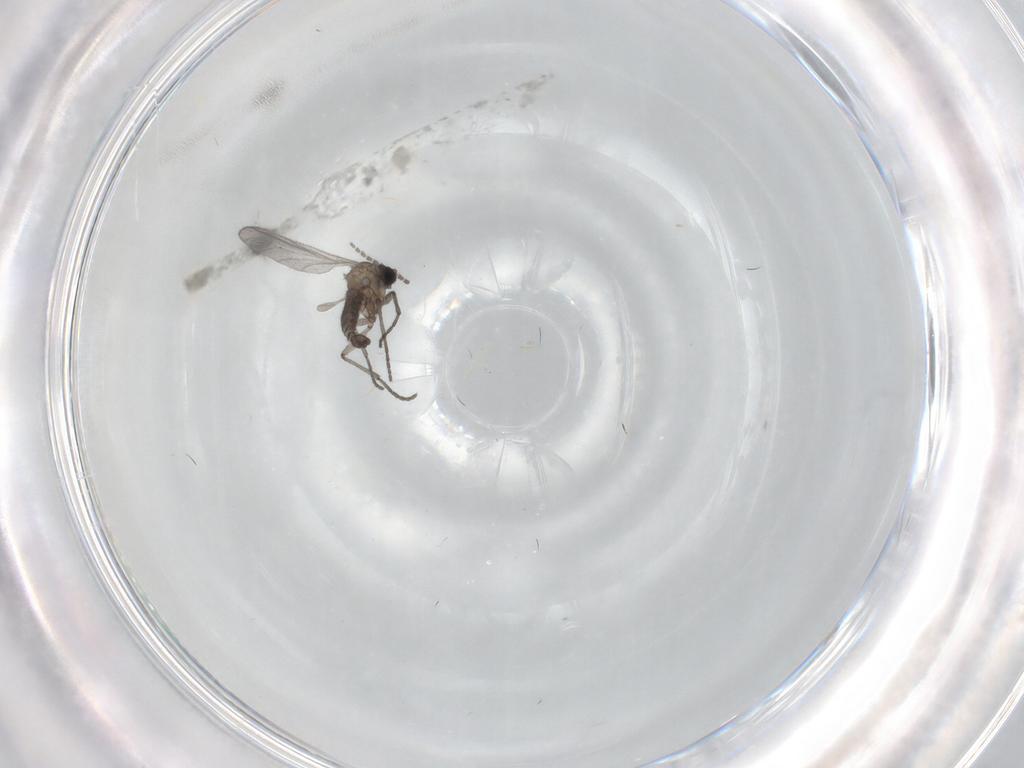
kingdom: Animalia
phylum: Arthropoda
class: Insecta
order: Diptera
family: Sciaridae
